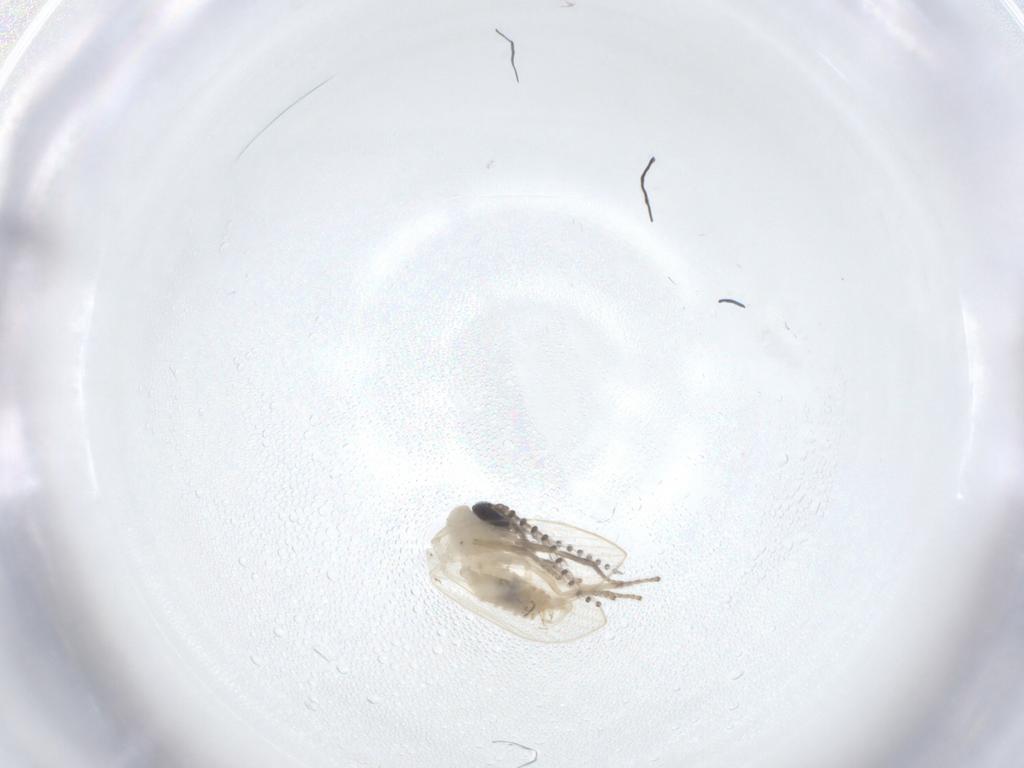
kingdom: Animalia
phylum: Arthropoda
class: Insecta
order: Diptera
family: Psychodidae
